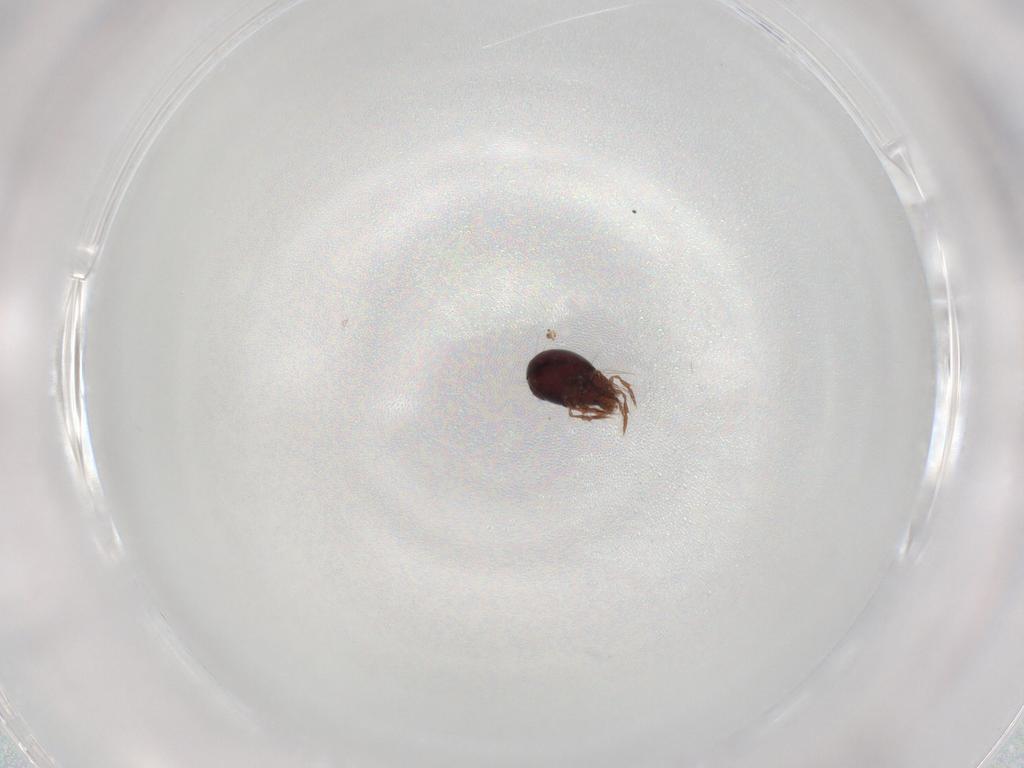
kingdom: Animalia
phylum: Arthropoda
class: Arachnida
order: Sarcoptiformes
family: Ceratoppiidae
